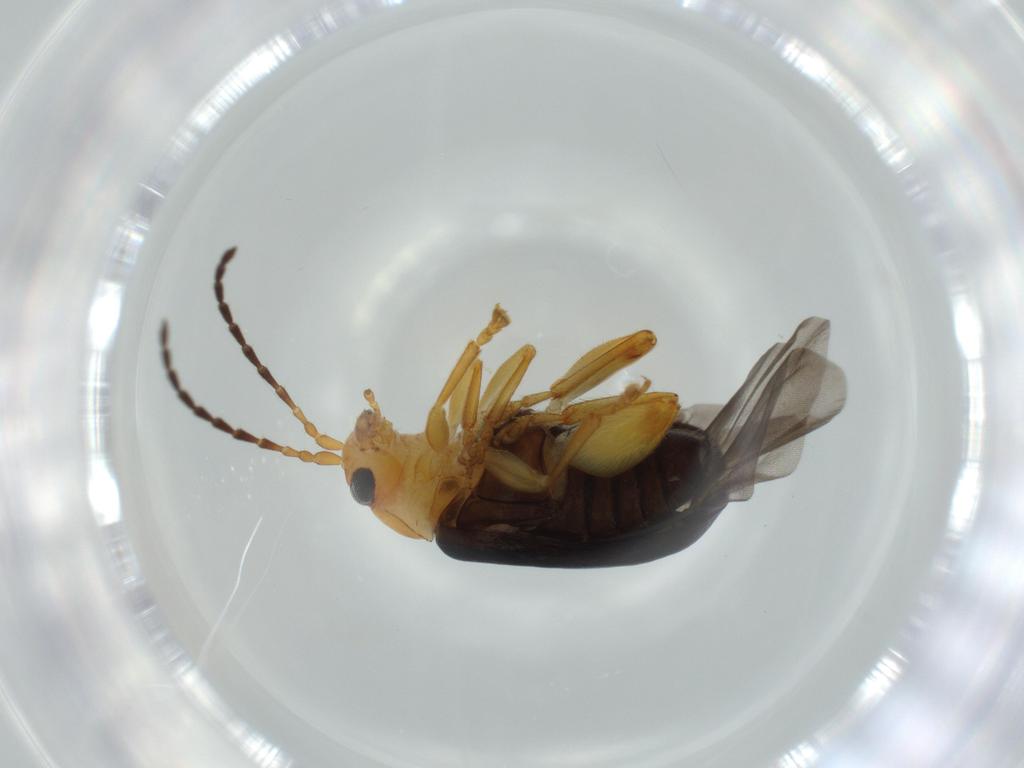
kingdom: Animalia
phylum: Arthropoda
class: Insecta
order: Coleoptera
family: Chrysomelidae
